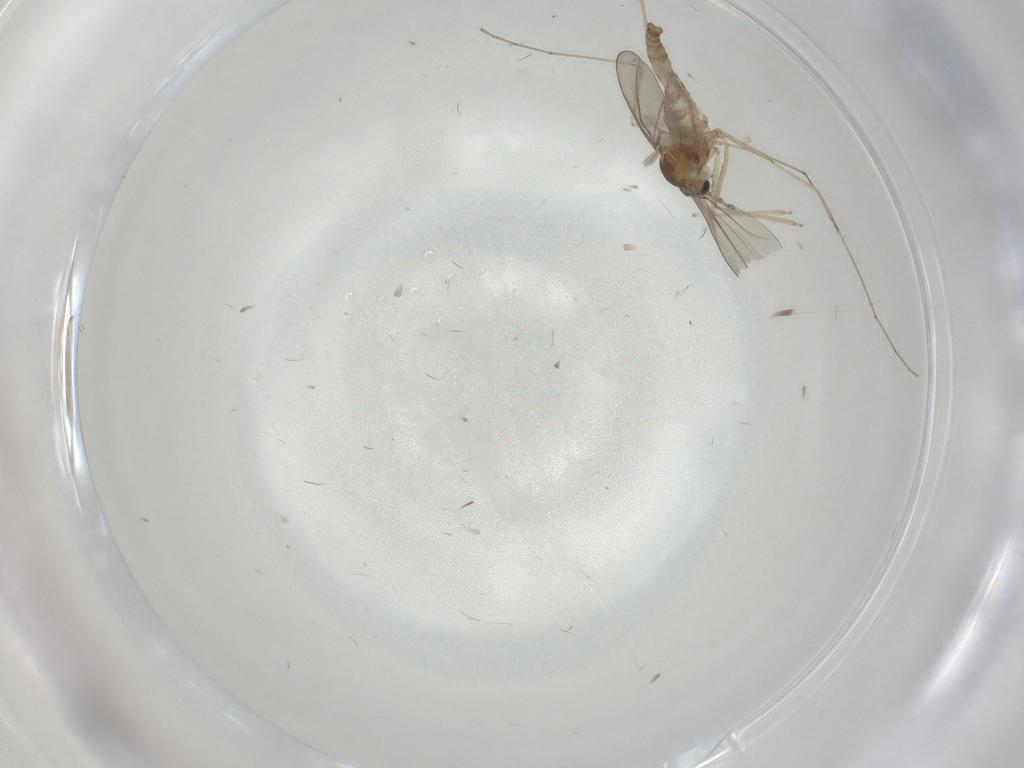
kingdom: Animalia
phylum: Arthropoda
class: Insecta
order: Diptera
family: Cecidomyiidae
